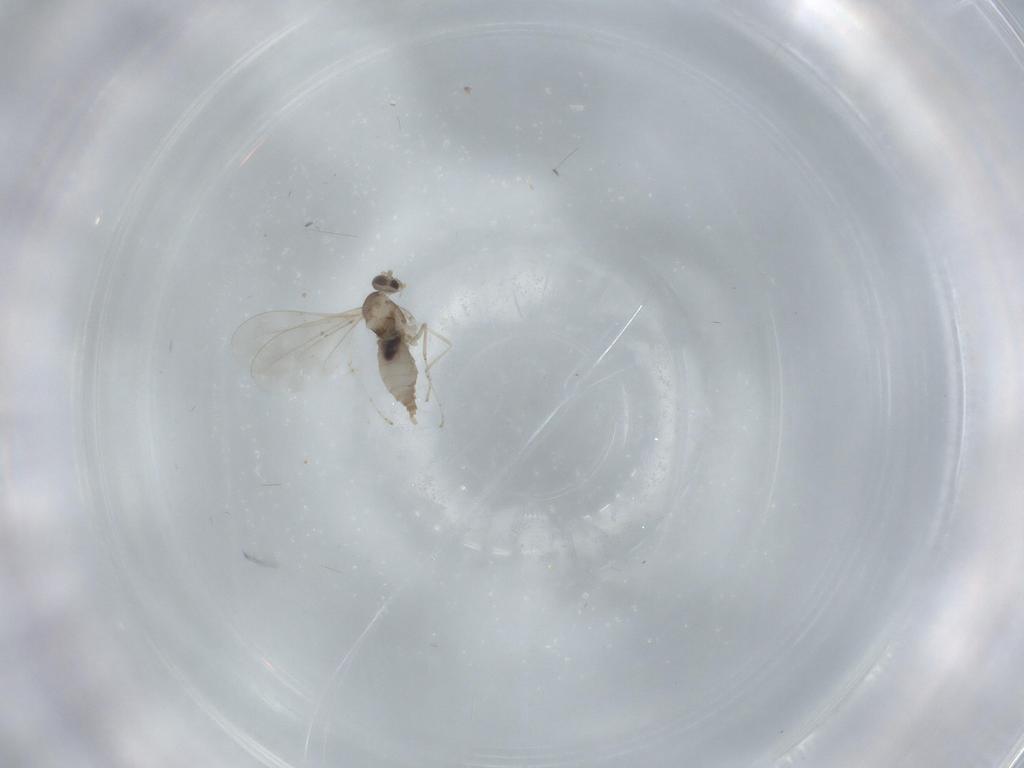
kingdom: Animalia
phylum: Arthropoda
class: Insecta
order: Diptera
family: Cecidomyiidae
